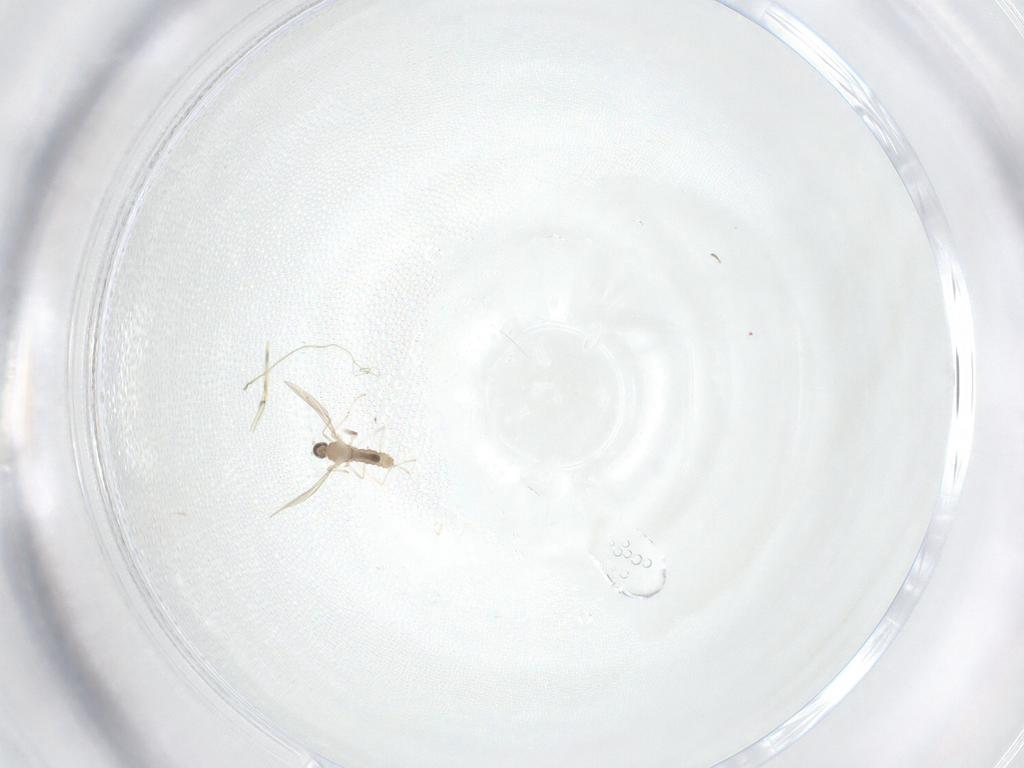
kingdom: Animalia
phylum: Arthropoda
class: Insecta
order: Diptera
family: Cecidomyiidae
